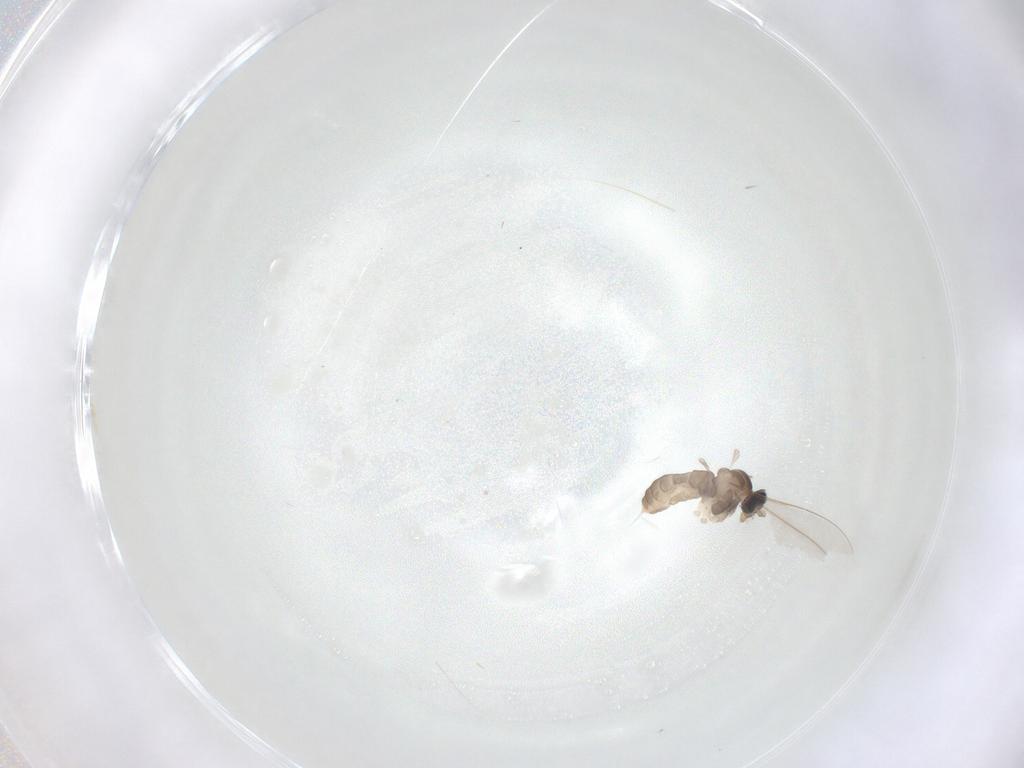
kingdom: Animalia
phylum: Arthropoda
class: Insecta
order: Diptera
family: Cecidomyiidae
